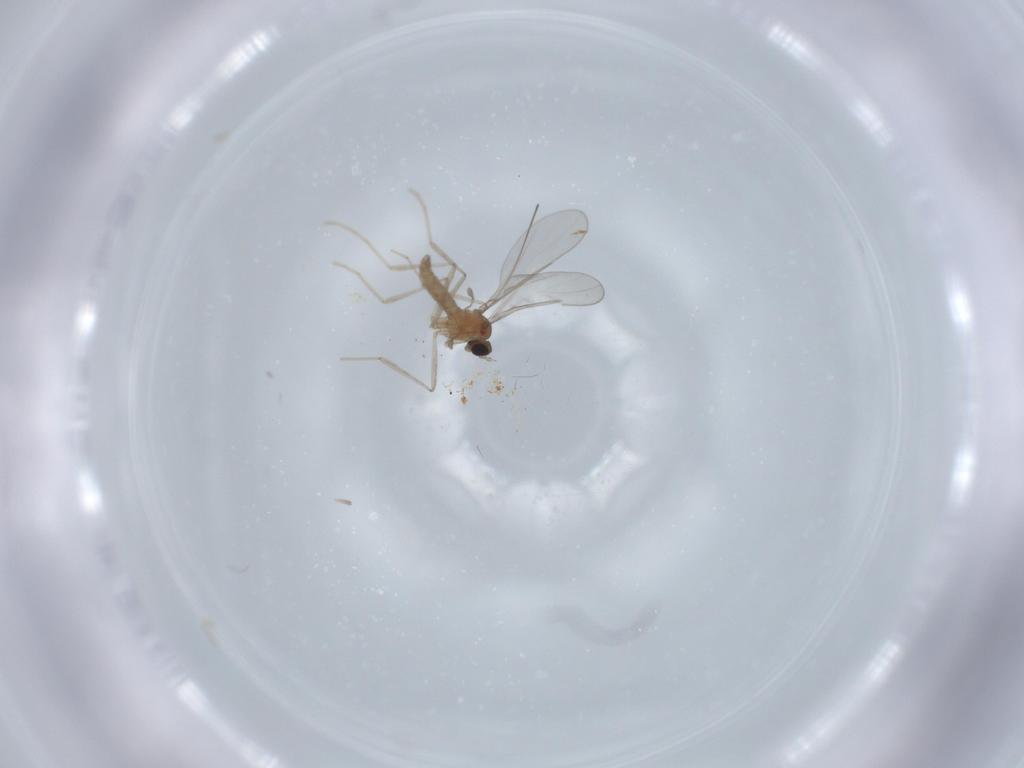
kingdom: Animalia
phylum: Arthropoda
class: Insecta
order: Diptera
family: Cecidomyiidae
